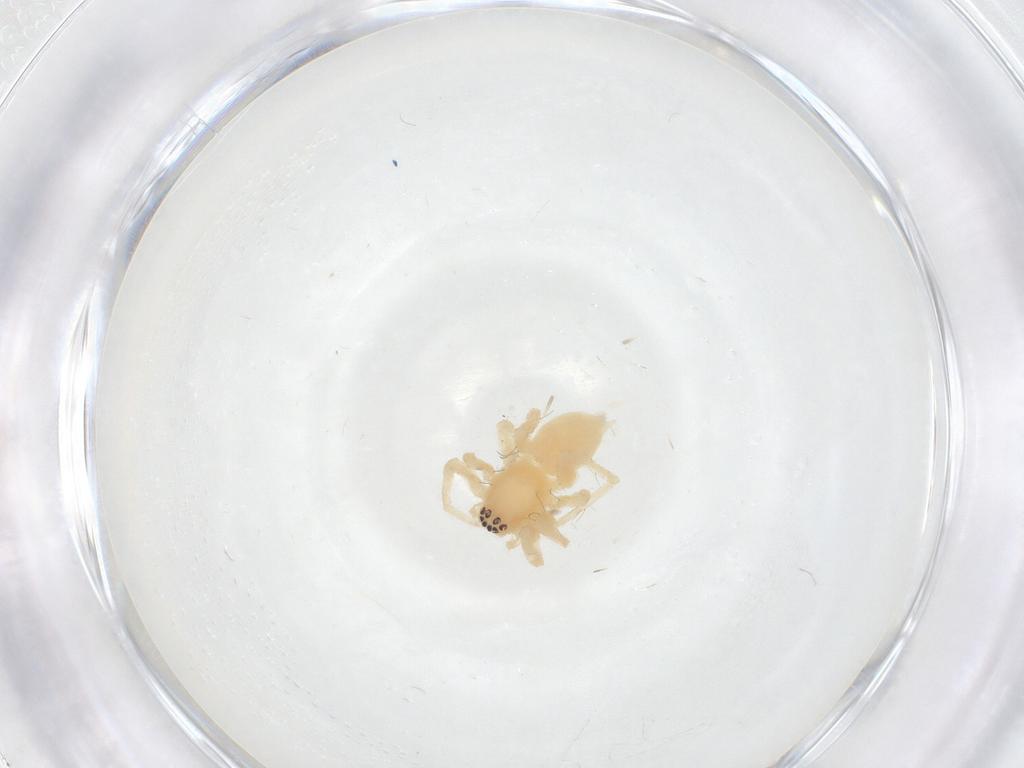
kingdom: Animalia
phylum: Arthropoda
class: Arachnida
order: Araneae
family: Anyphaenidae
